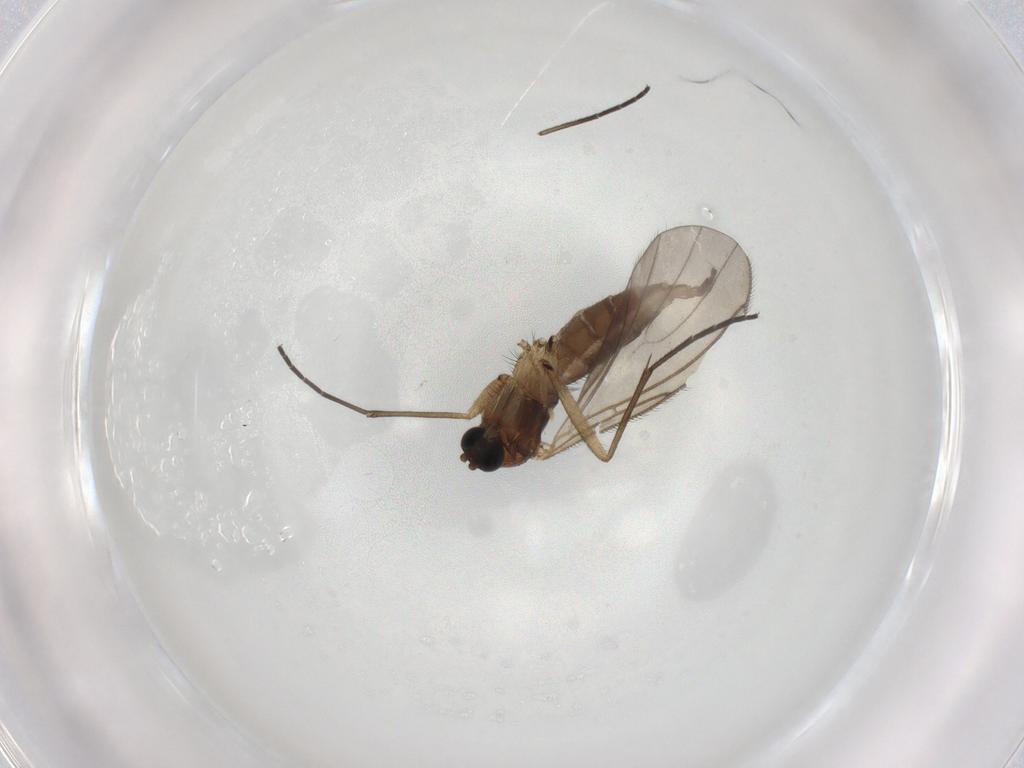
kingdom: Animalia
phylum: Arthropoda
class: Insecta
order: Diptera
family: Sciaridae
